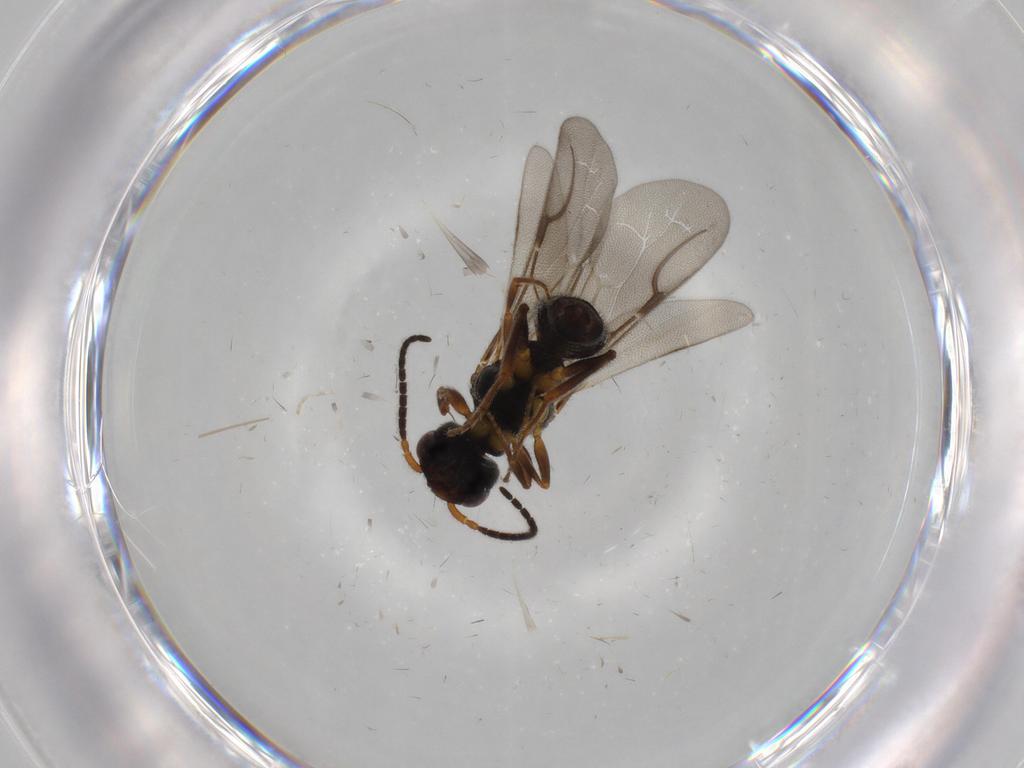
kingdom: Animalia
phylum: Arthropoda
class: Insecta
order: Hymenoptera
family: Bethylidae
